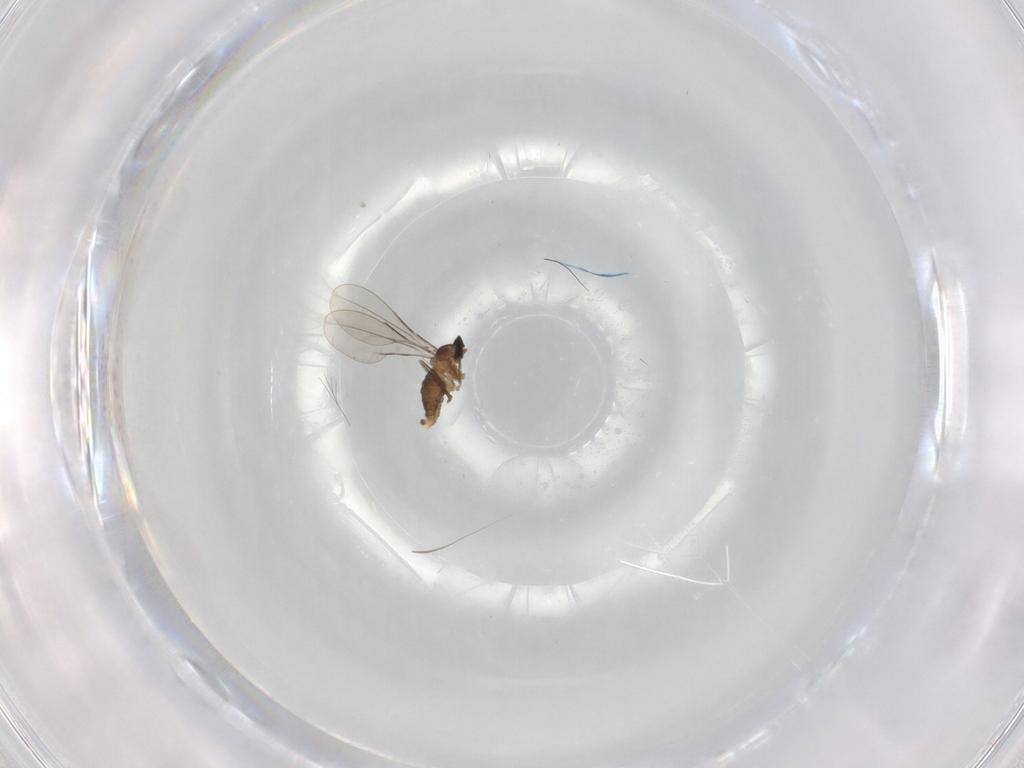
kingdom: Animalia
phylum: Arthropoda
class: Insecta
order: Diptera
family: Cecidomyiidae
